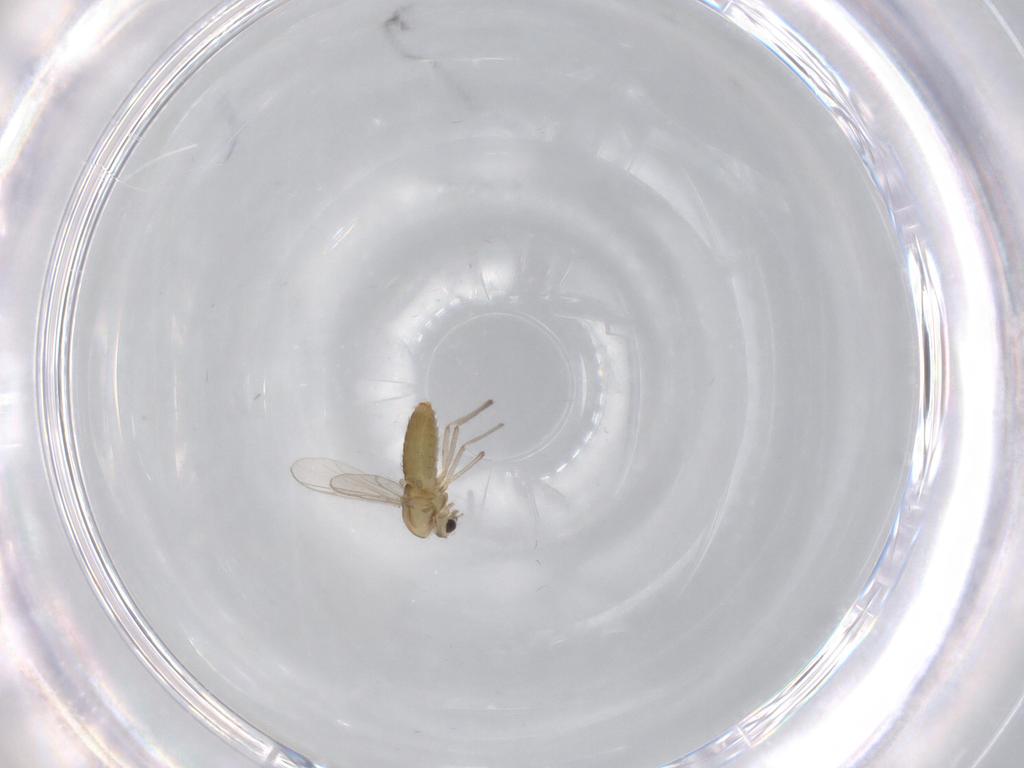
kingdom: Animalia
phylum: Arthropoda
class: Insecta
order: Diptera
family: Chironomidae
